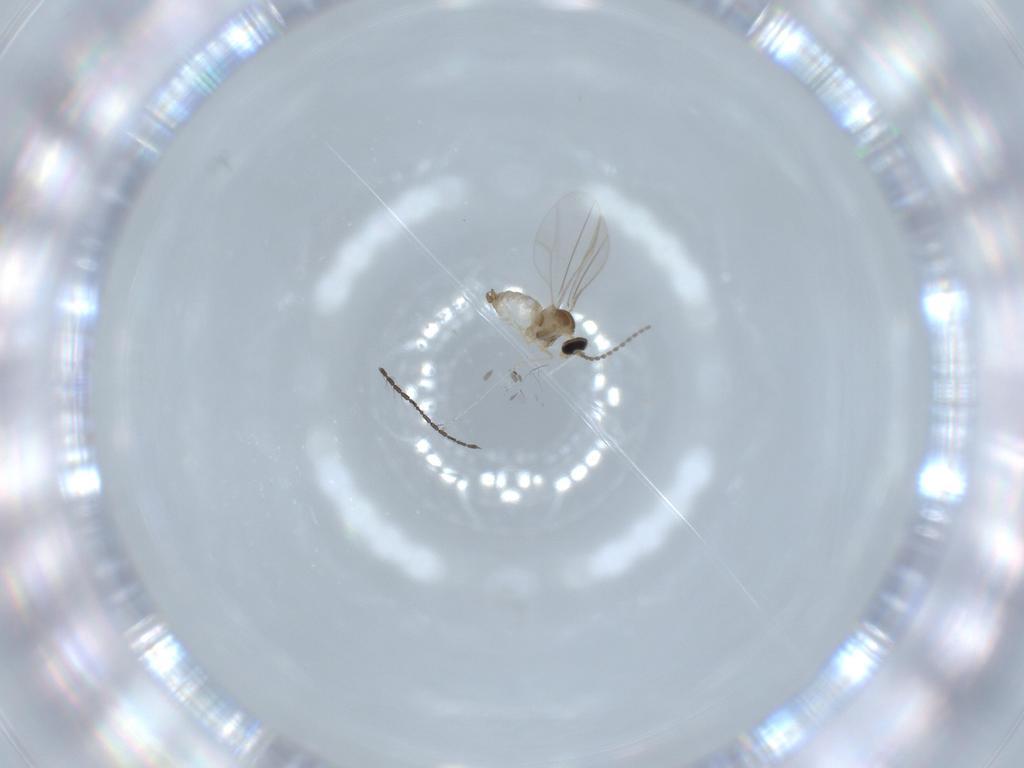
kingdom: Animalia
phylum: Arthropoda
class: Insecta
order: Diptera
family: Cecidomyiidae
